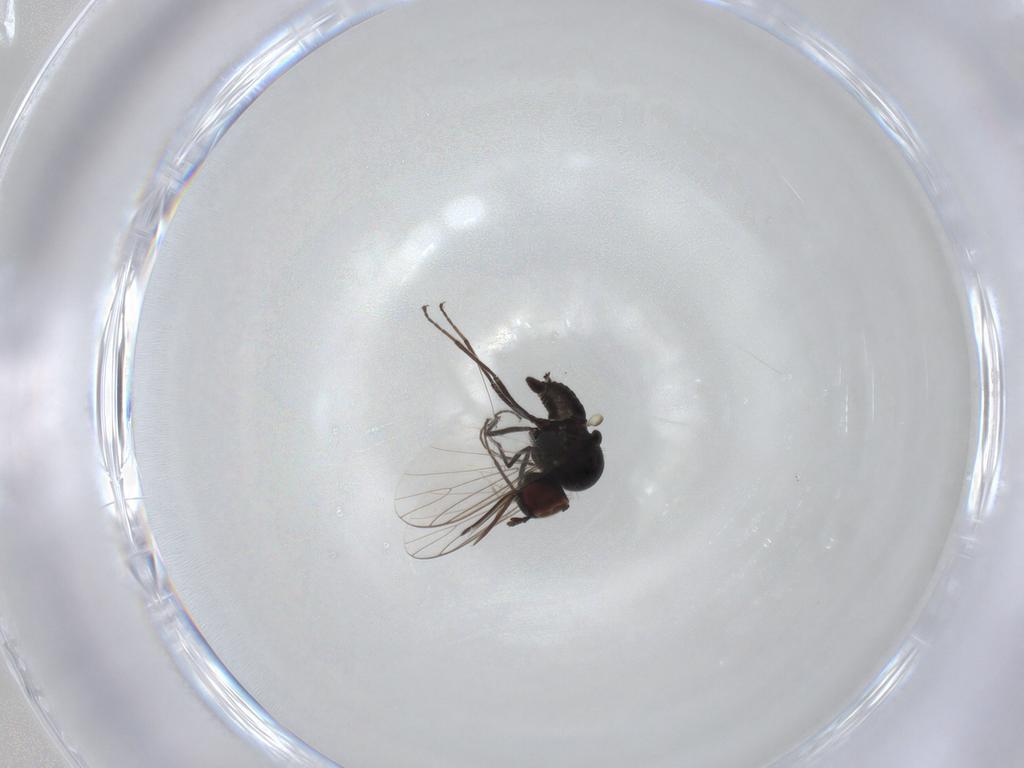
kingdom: Animalia
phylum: Arthropoda
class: Insecta
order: Diptera
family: Bombyliidae
